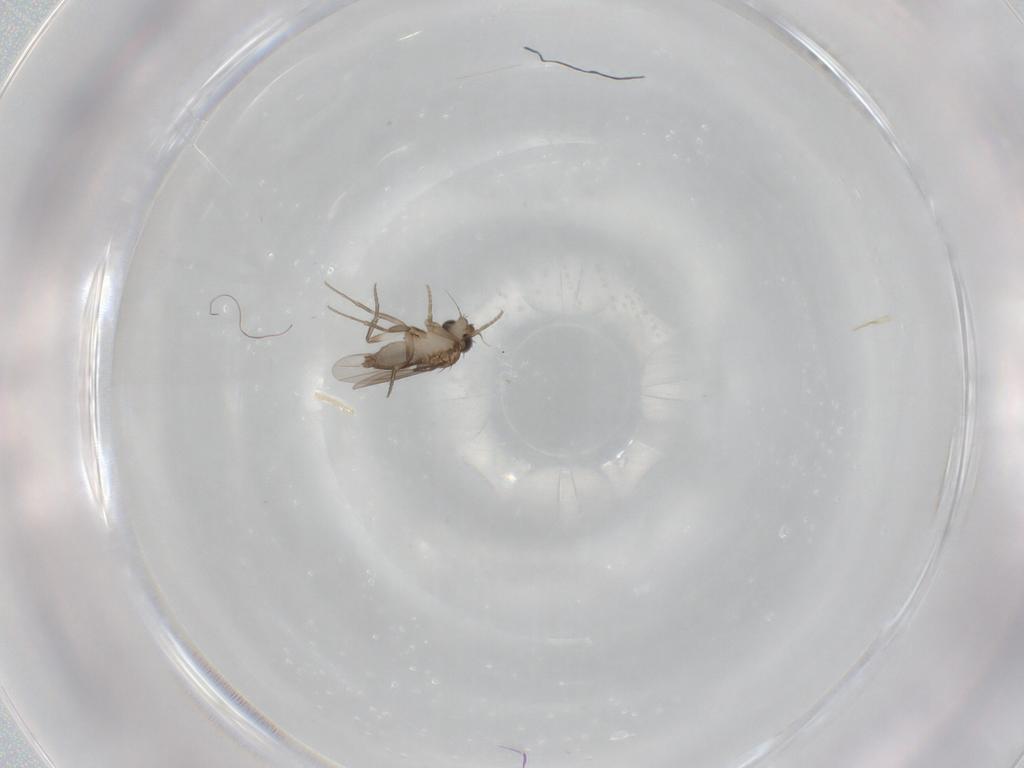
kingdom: Animalia
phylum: Arthropoda
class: Insecta
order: Diptera
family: Phoridae
